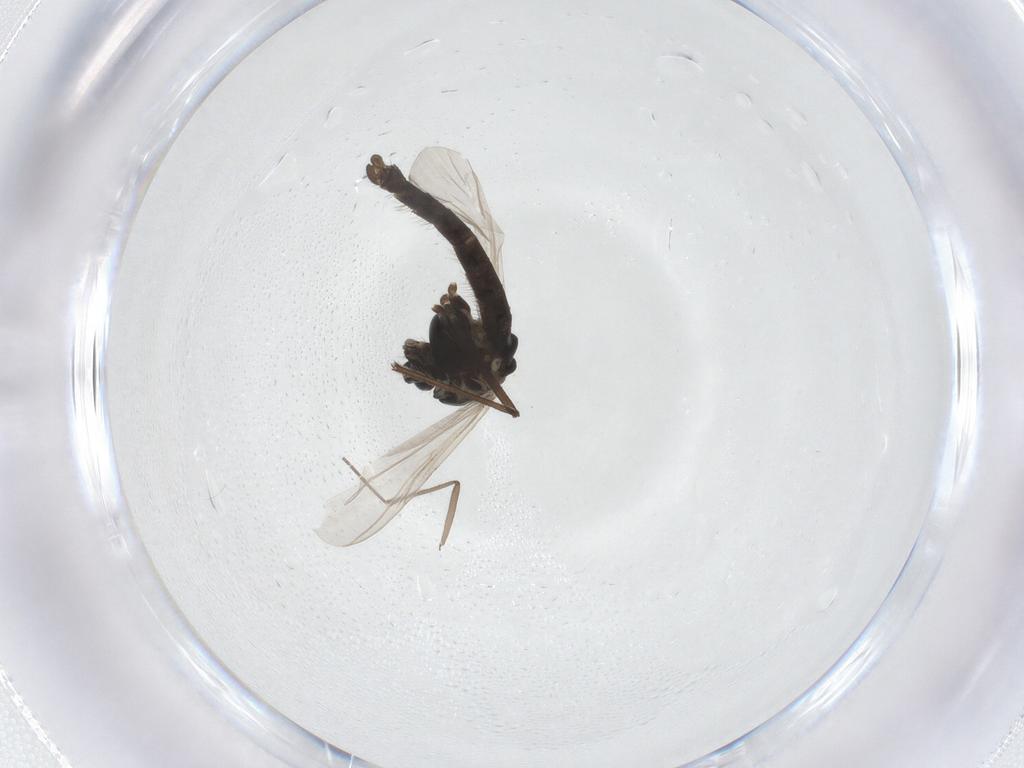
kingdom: Animalia
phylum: Arthropoda
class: Insecta
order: Diptera
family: Chironomidae
